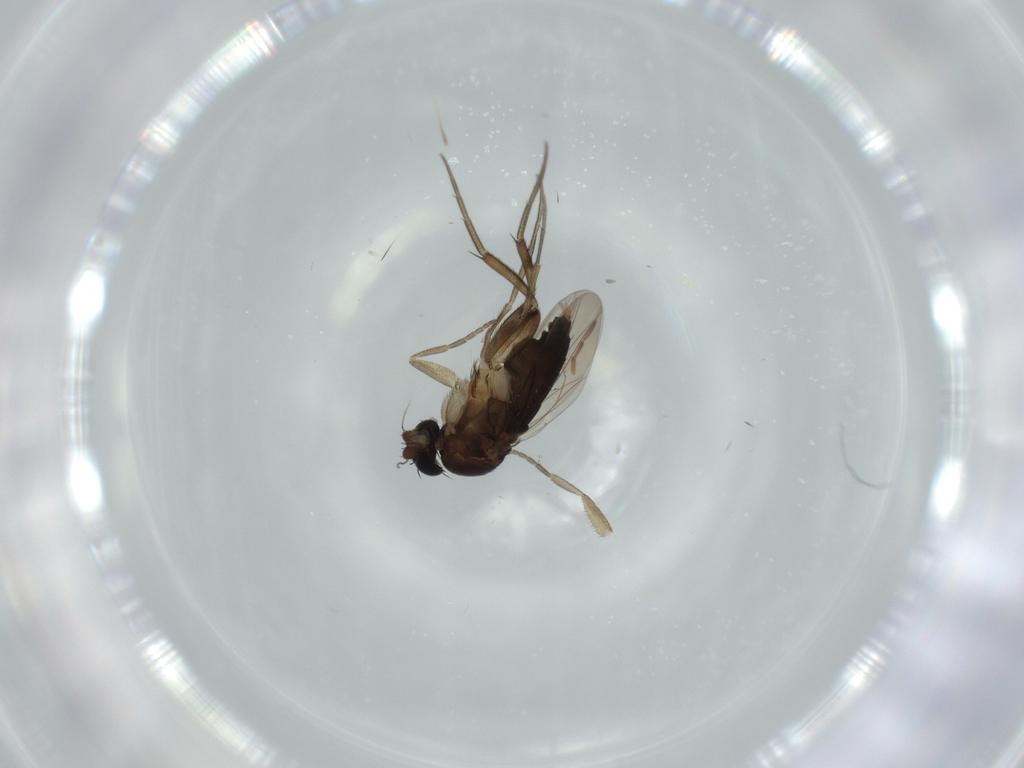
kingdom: Animalia
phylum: Arthropoda
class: Insecta
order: Diptera
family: Phoridae
